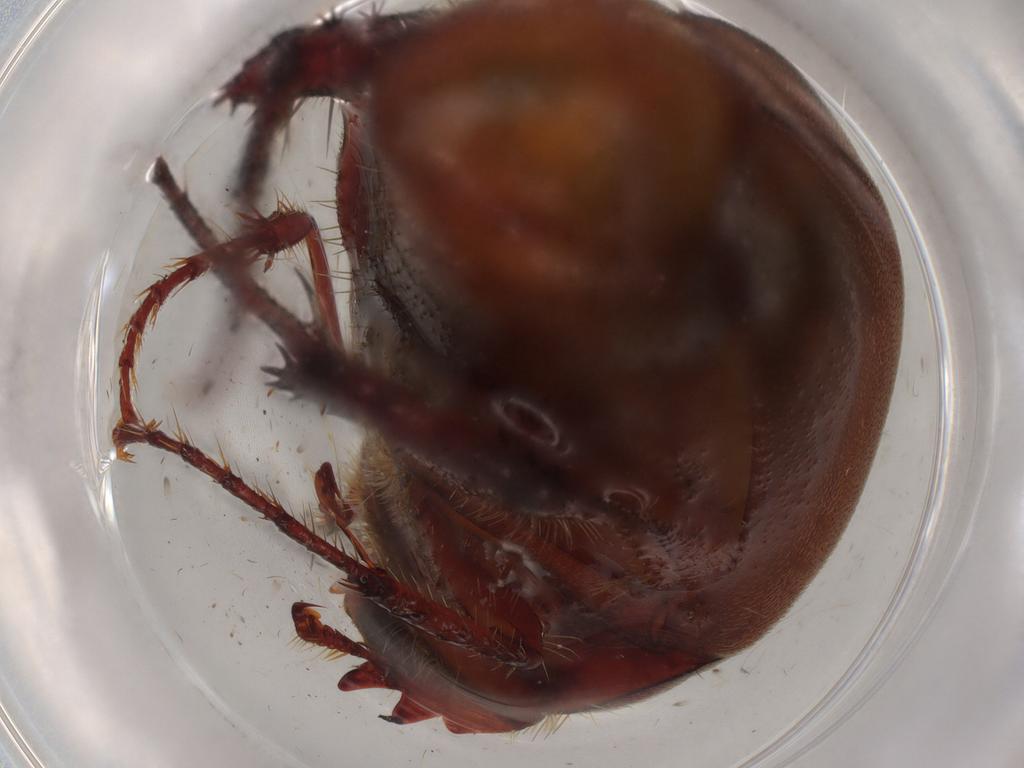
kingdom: Animalia
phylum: Arthropoda
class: Insecta
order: Coleoptera
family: Melolonthidae
